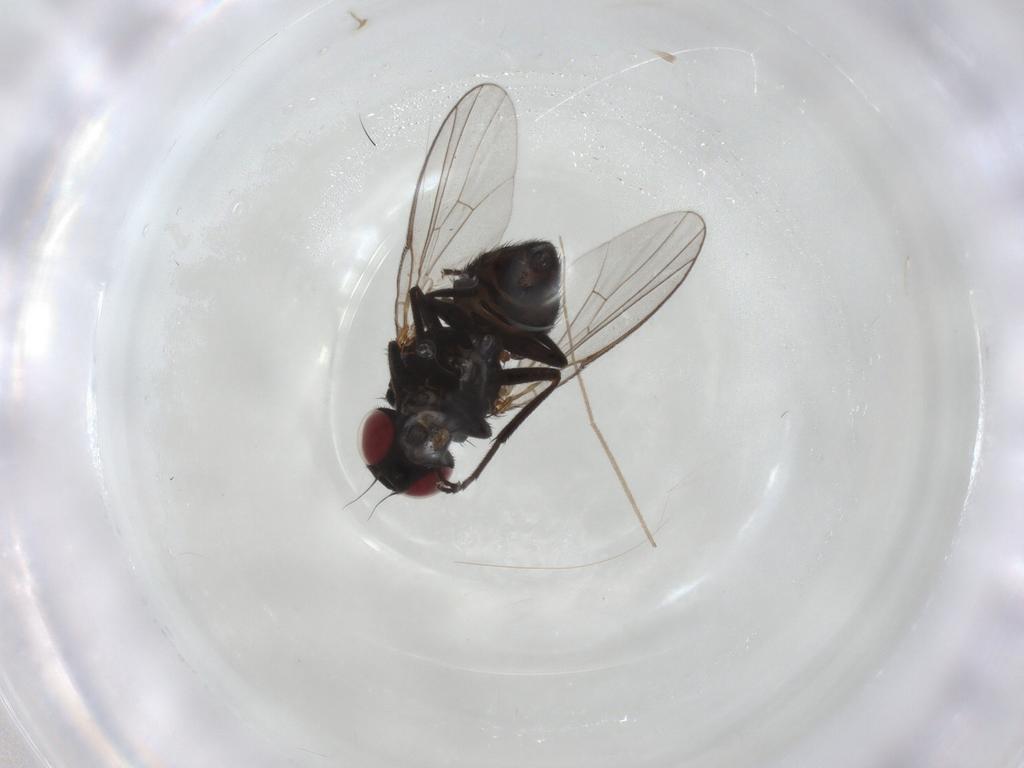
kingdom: Animalia
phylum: Arthropoda
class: Insecta
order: Diptera
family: Agromyzidae
